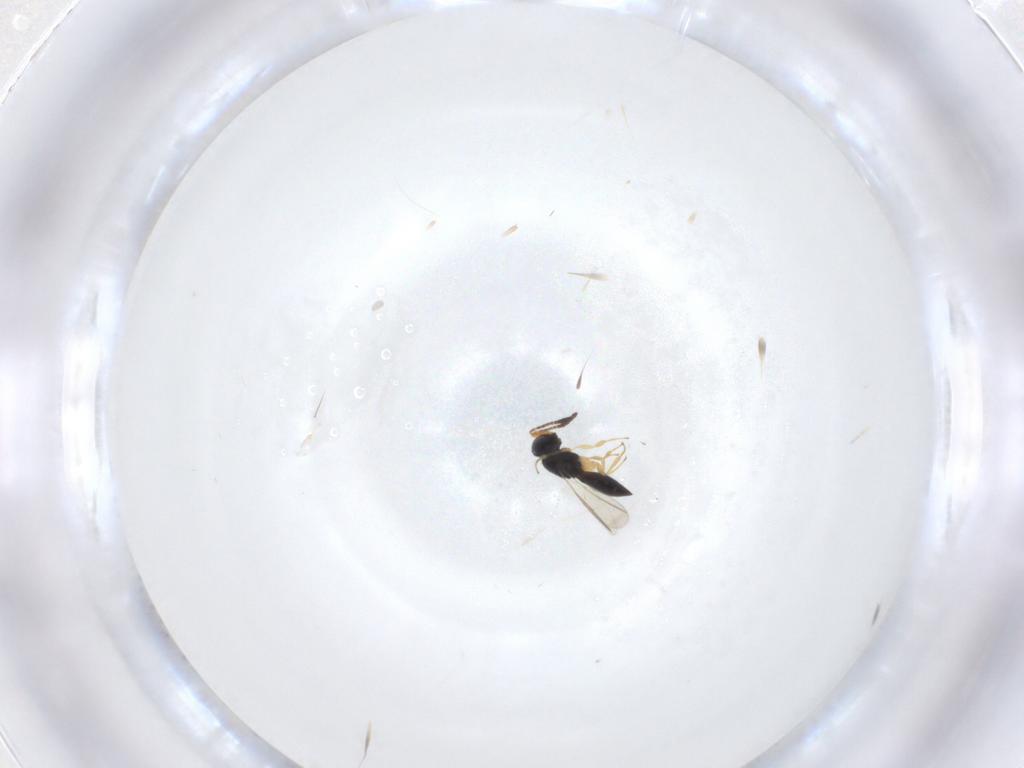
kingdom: Animalia
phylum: Arthropoda
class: Insecta
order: Hymenoptera
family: Scelionidae
